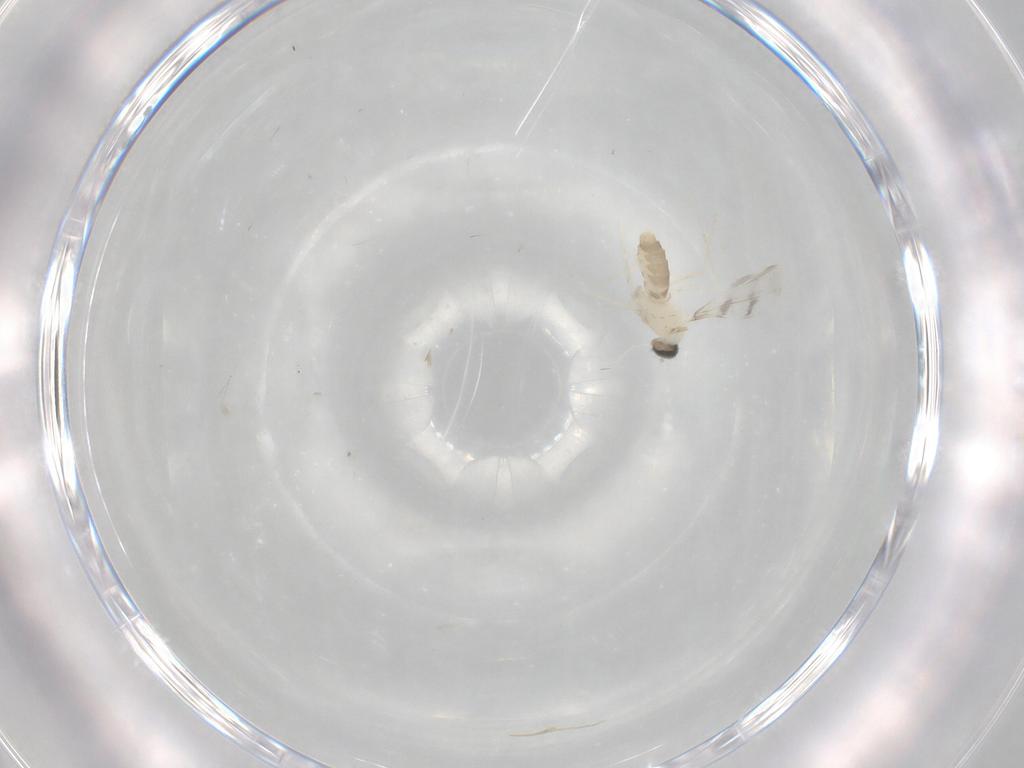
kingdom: Animalia
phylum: Arthropoda
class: Insecta
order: Diptera
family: Cecidomyiidae
